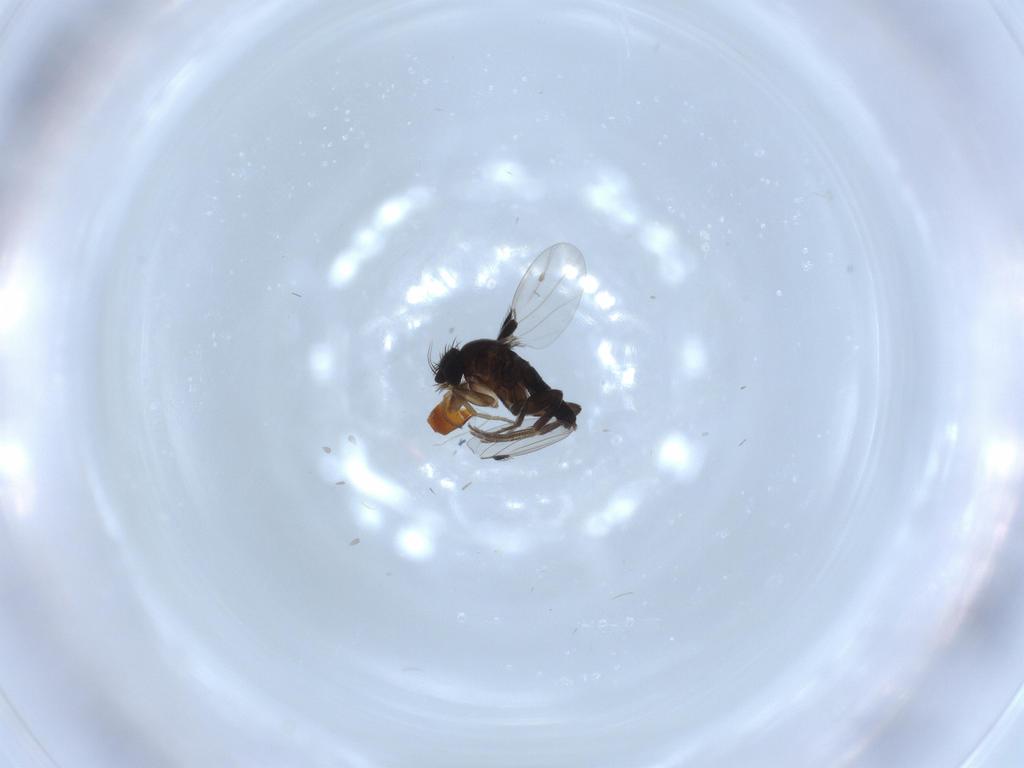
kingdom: Animalia
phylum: Arthropoda
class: Insecta
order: Diptera
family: Phoridae
